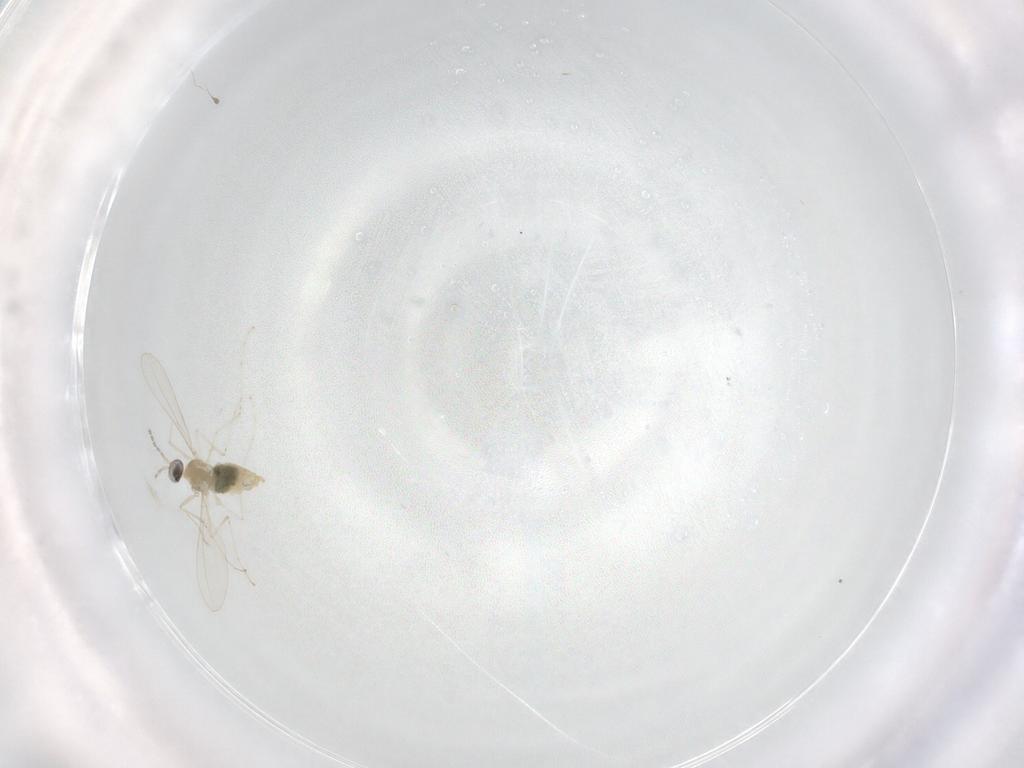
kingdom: Animalia
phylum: Arthropoda
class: Insecta
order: Diptera
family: Cecidomyiidae
